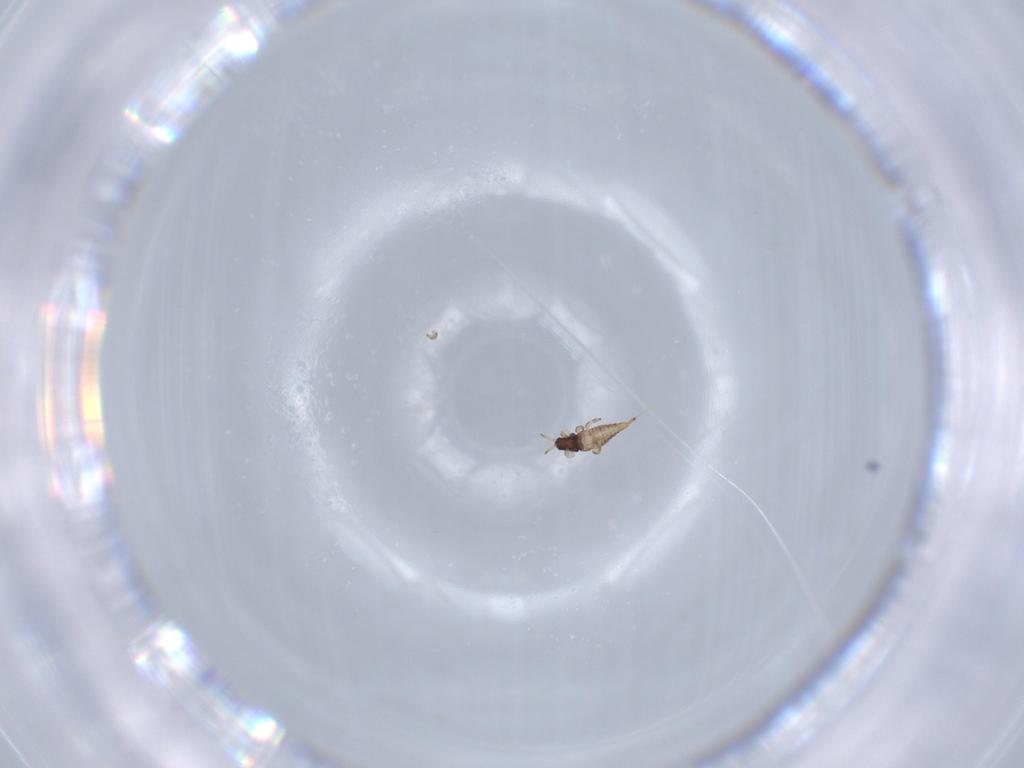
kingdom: Animalia
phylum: Arthropoda
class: Insecta
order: Thysanoptera
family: Phlaeothripidae
